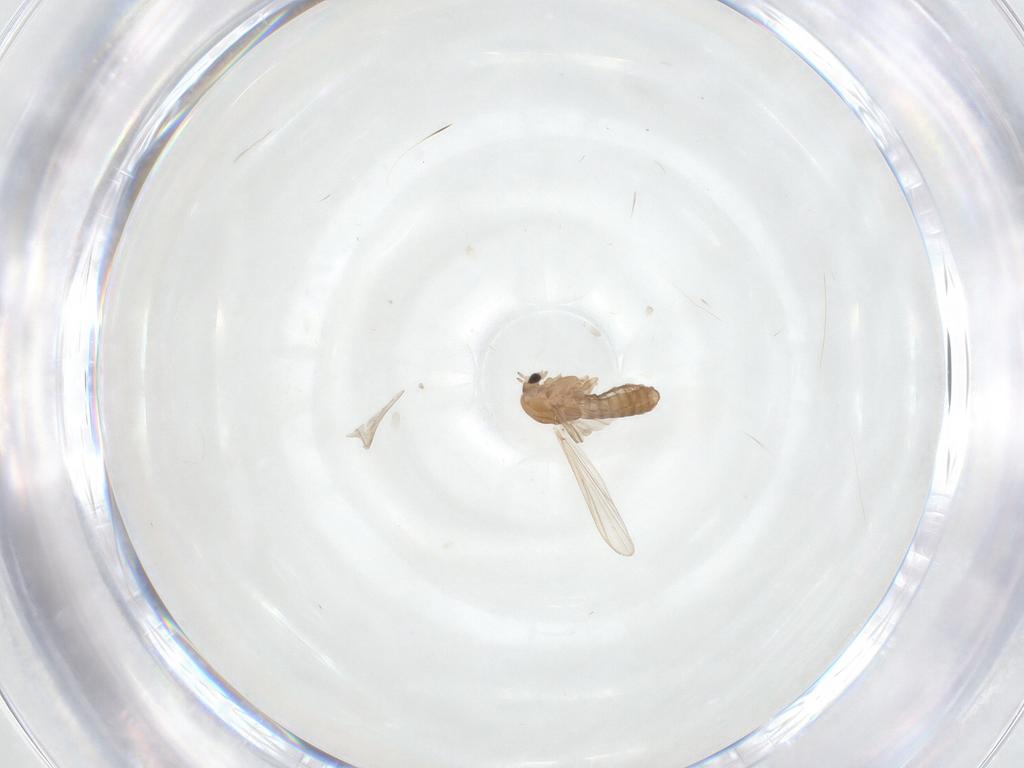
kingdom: Animalia
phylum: Arthropoda
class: Insecta
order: Diptera
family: Chironomidae
